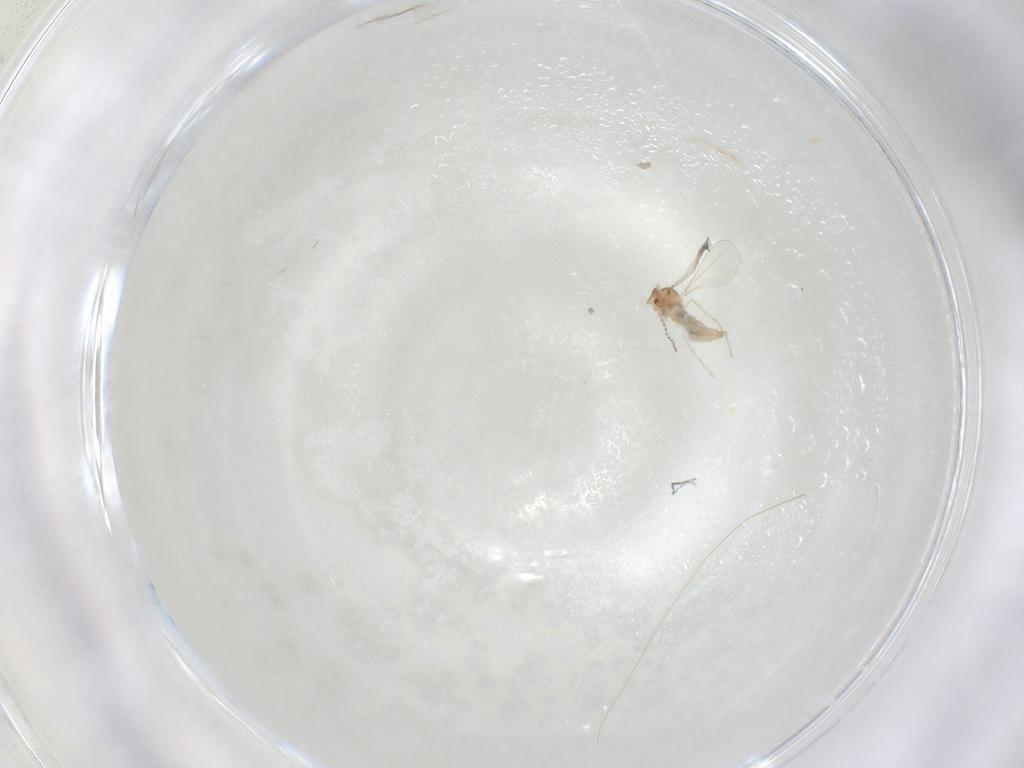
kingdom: Animalia
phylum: Arthropoda
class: Insecta
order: Diptera
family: Cecidomyiidae
